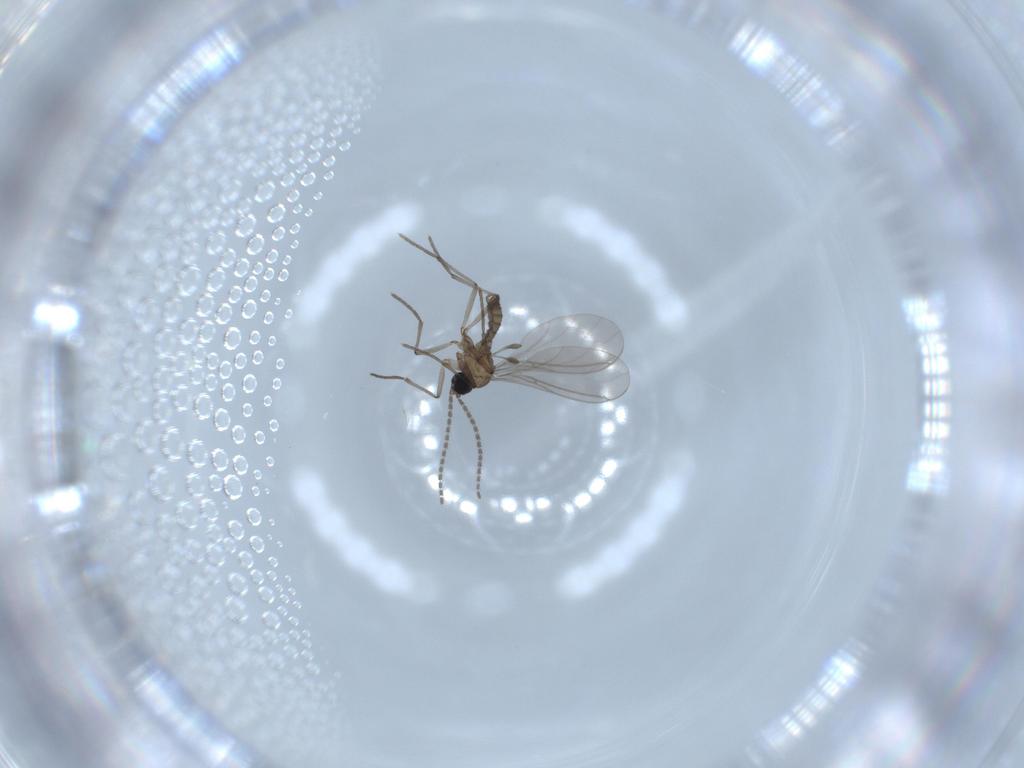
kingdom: Animalia
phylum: Arthropoda
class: Insecta
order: Diptera
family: Sciaridae
